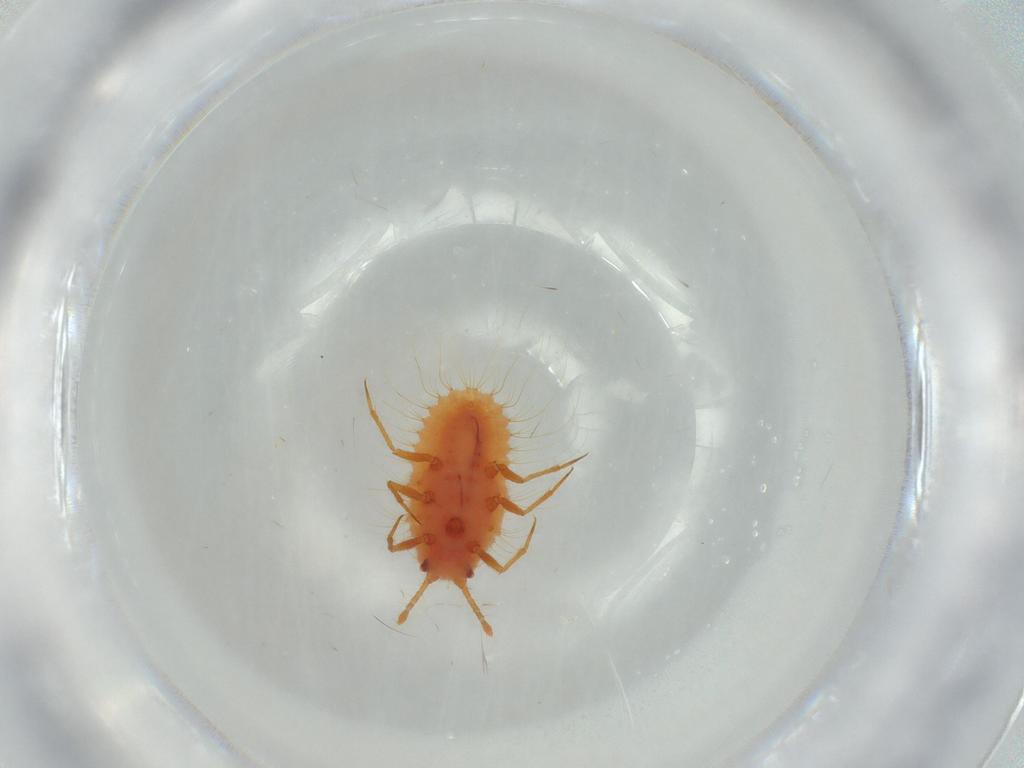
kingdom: Animalia
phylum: Arthropoda
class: Insecta
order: Hemiptera
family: Coccoidea_incertae_sedis
